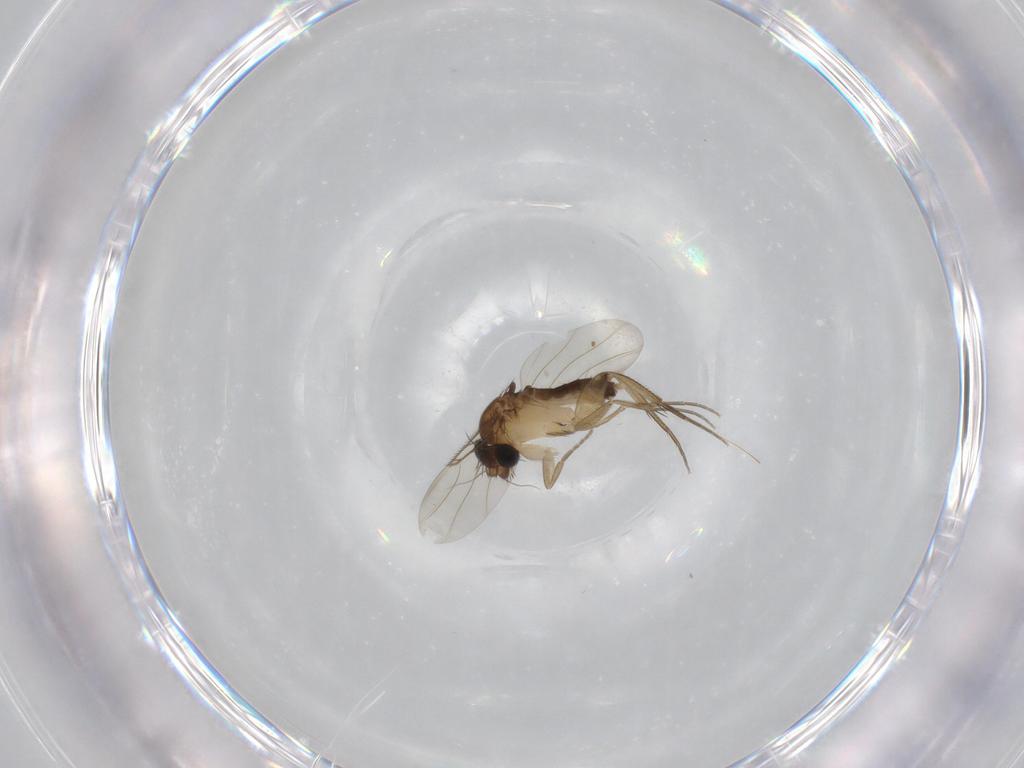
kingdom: Animalia
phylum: Arthropoda
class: Insecta
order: Diptera
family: Phoridae
